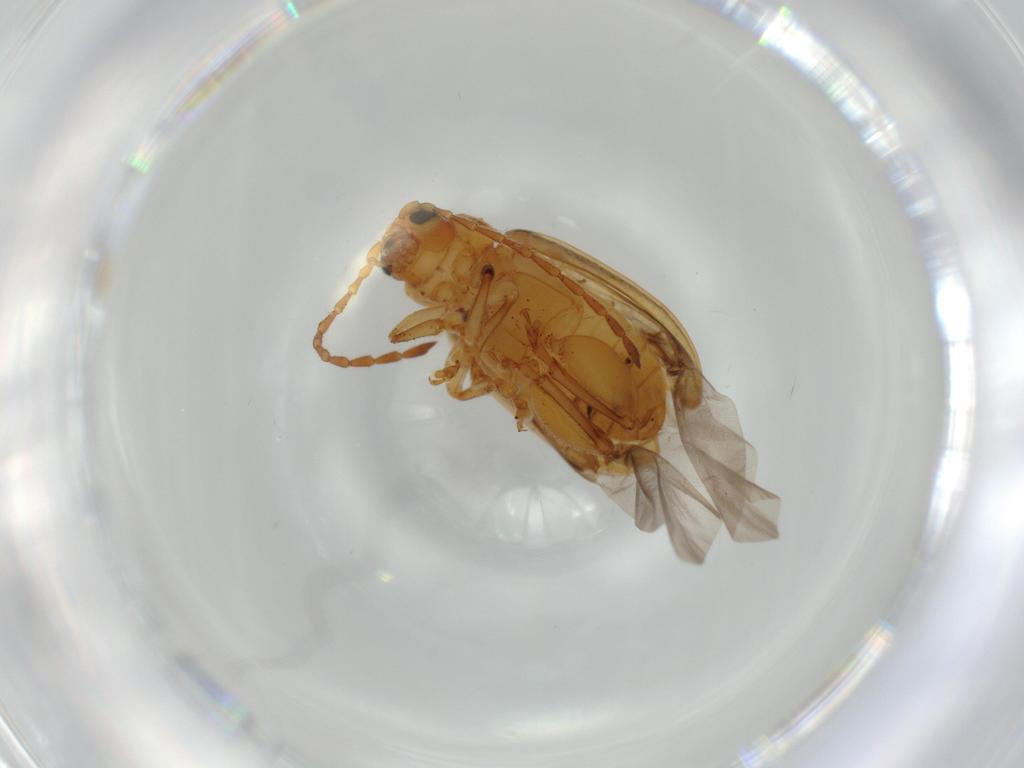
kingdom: Animalia
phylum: Arthropoda
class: Insecta
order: Coleoptera
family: Chrysomelidae
